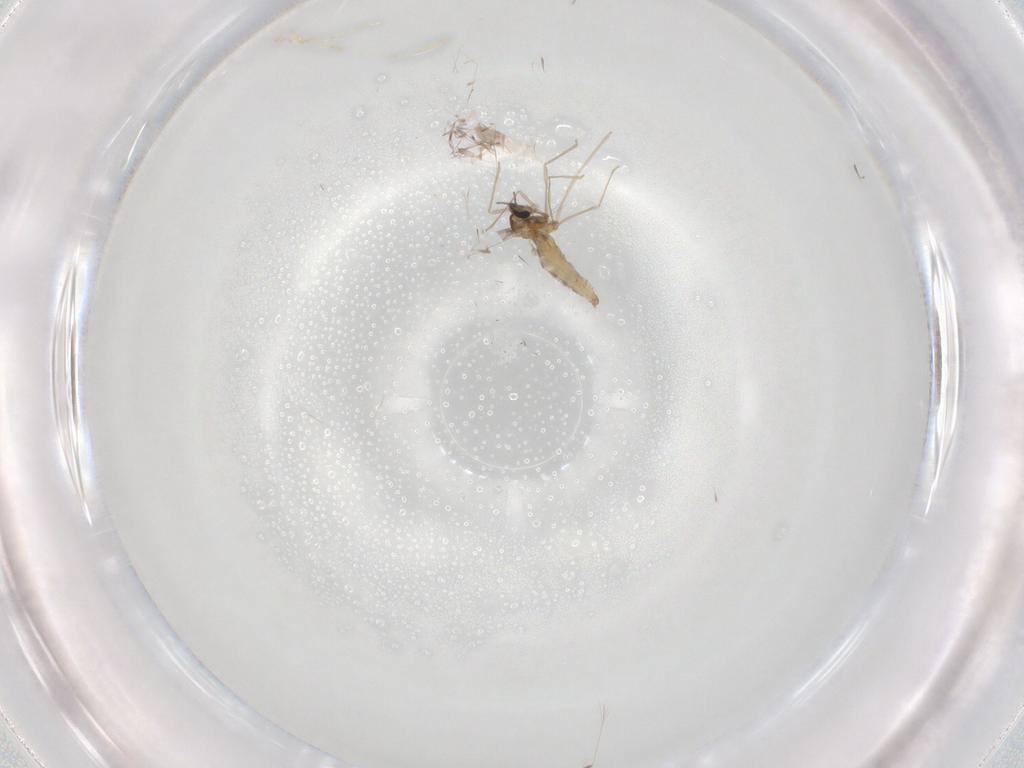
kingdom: Animalia
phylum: Arthropoda
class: Insecta
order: Diptera
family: Cecidomyiidae
